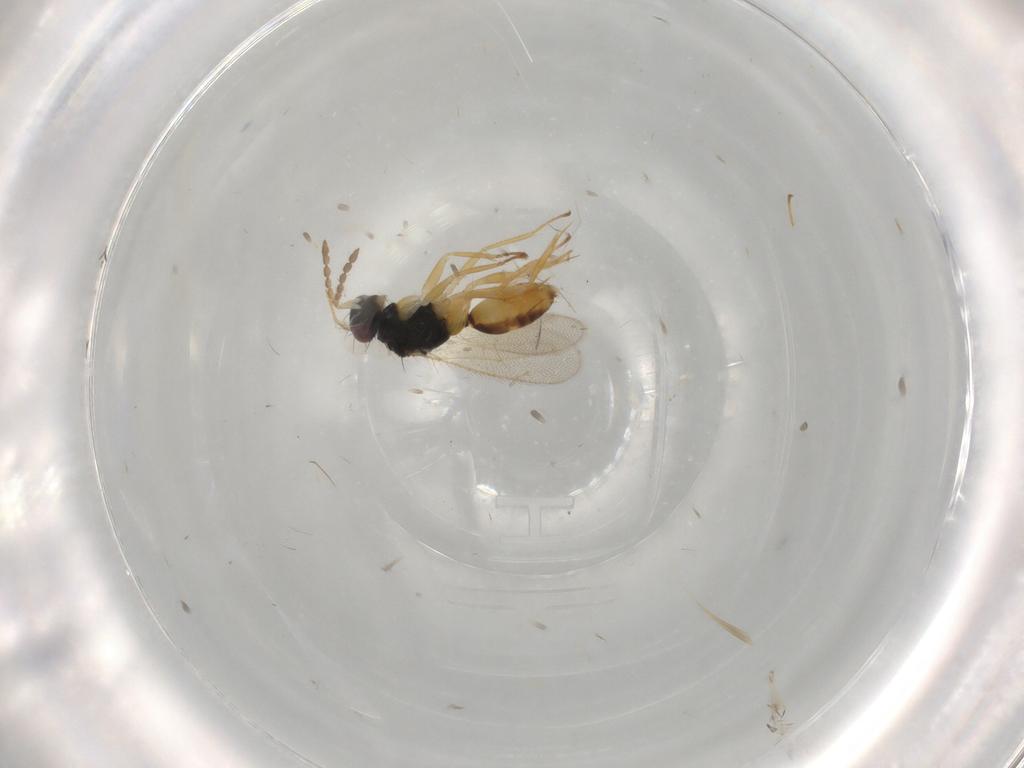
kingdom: Animalia
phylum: Arthropoda
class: Insecta
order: Hymenoptera
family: Eulophidae
